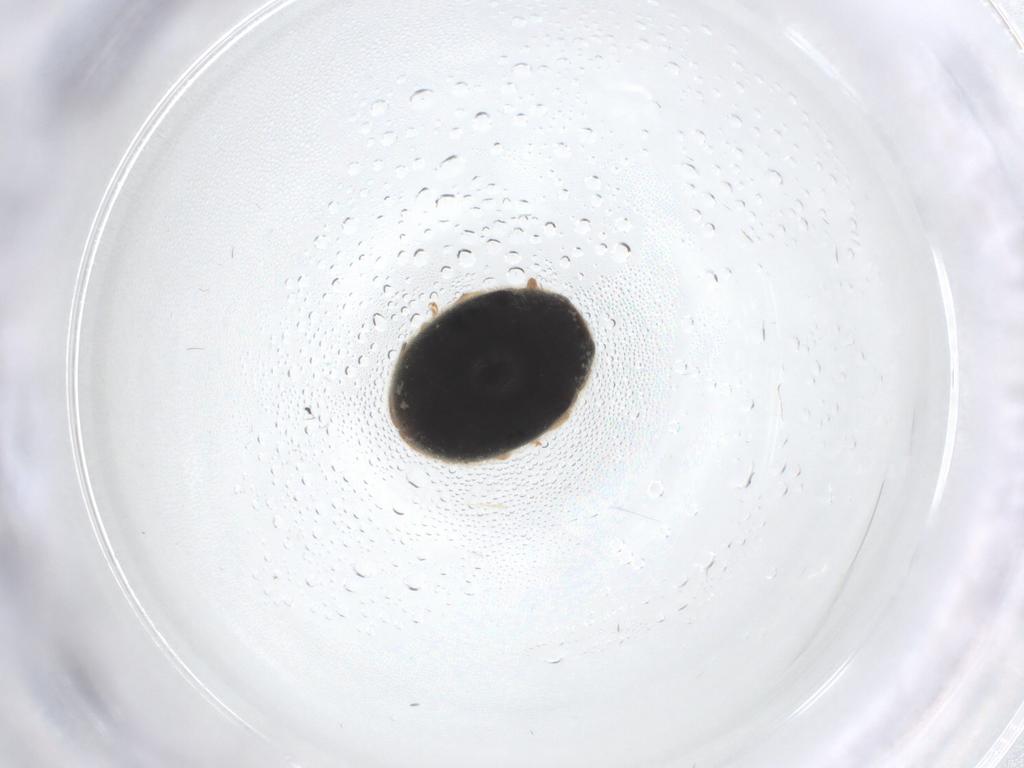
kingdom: Animalia
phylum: Arthropoda
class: Insecta
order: Coleoptera
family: Coccinellidae
